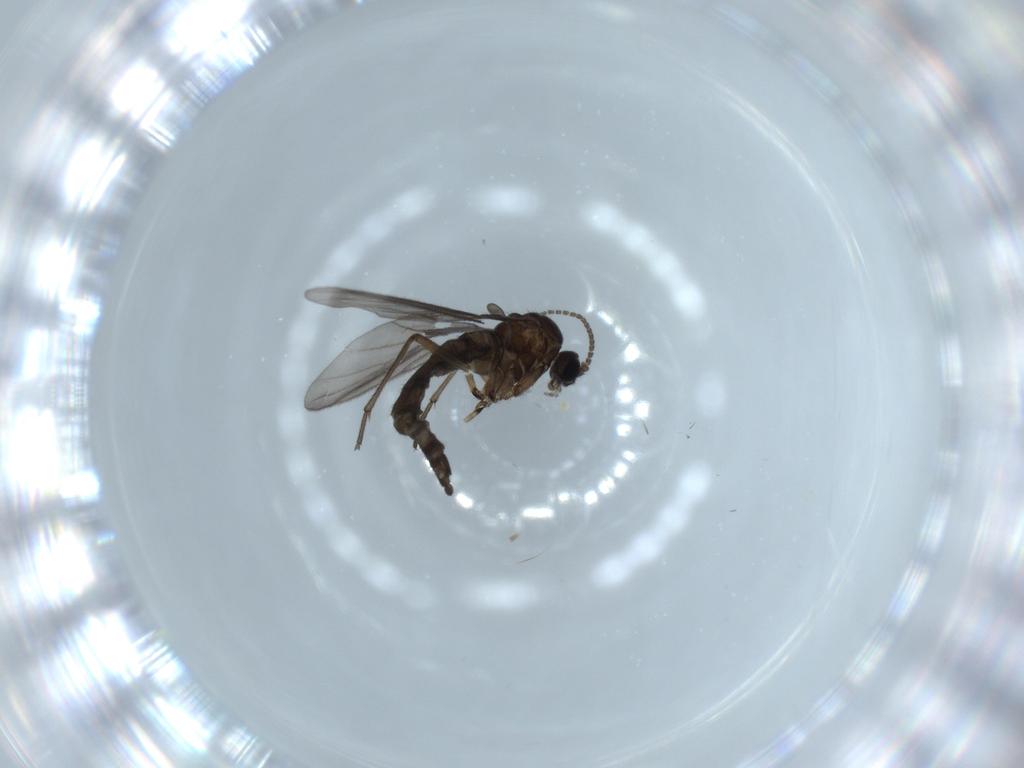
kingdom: Animalia
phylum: Arthropoda
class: Insecta
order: Diptera
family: Sciaridae
